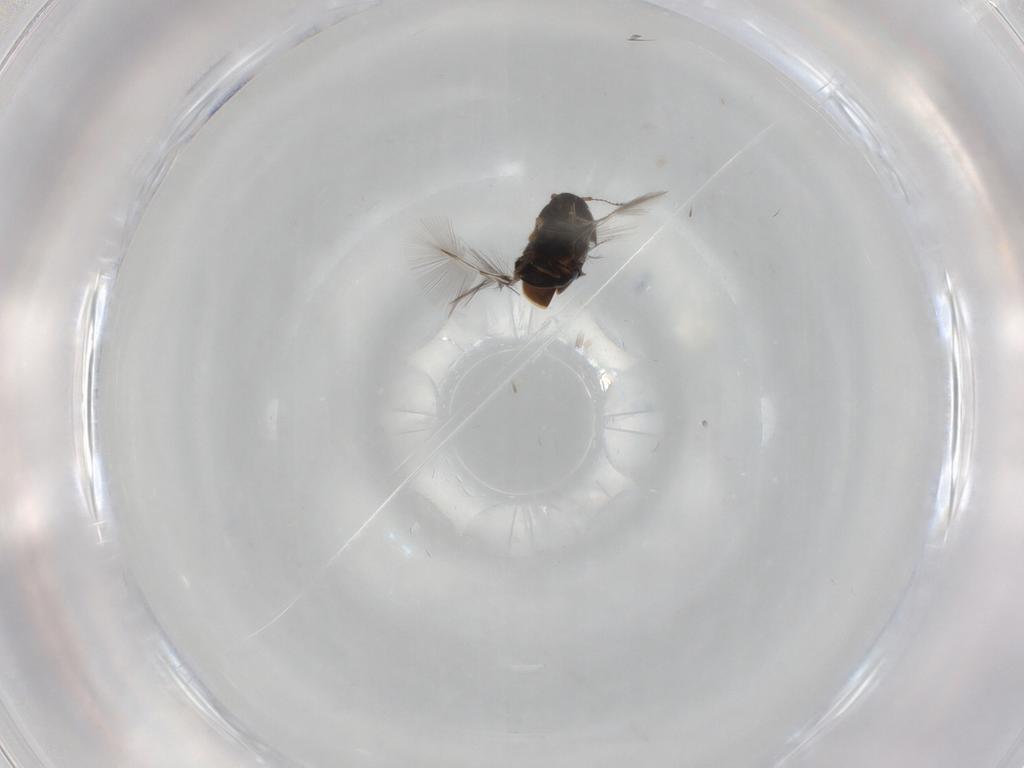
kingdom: Animalia
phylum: Arthropoda
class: Insecta
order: Coleoptera
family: Ptiliidae
